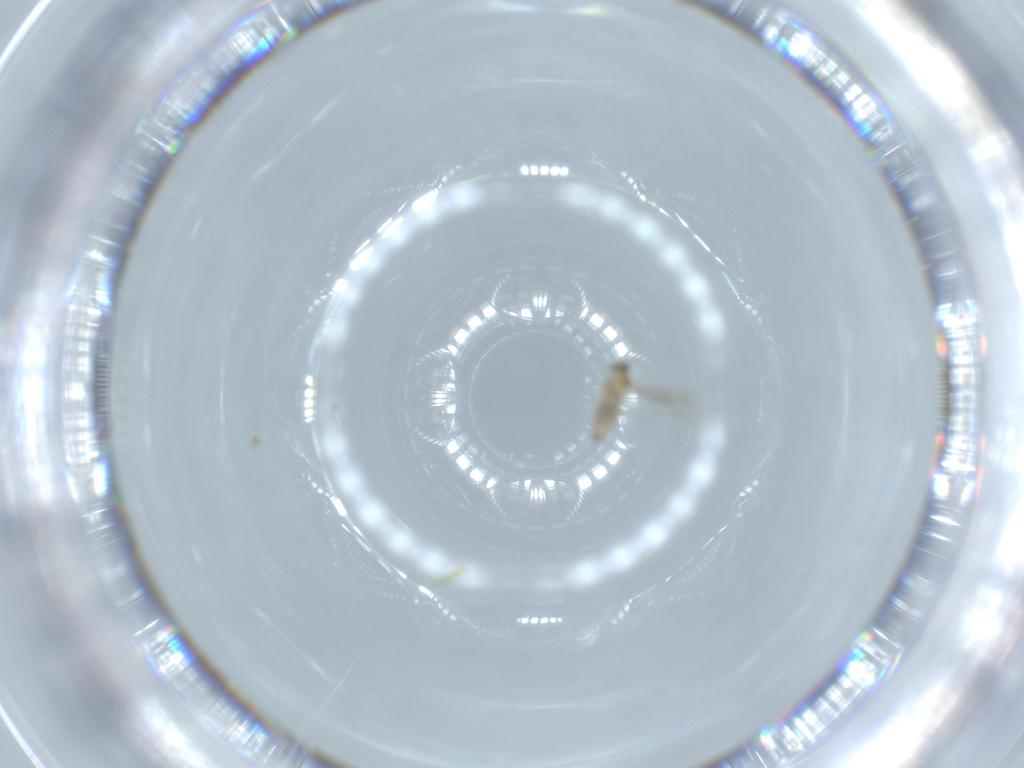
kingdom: Animalia
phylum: Arthropoda
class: Insecta
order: Diptera
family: Cecidomyiidae
